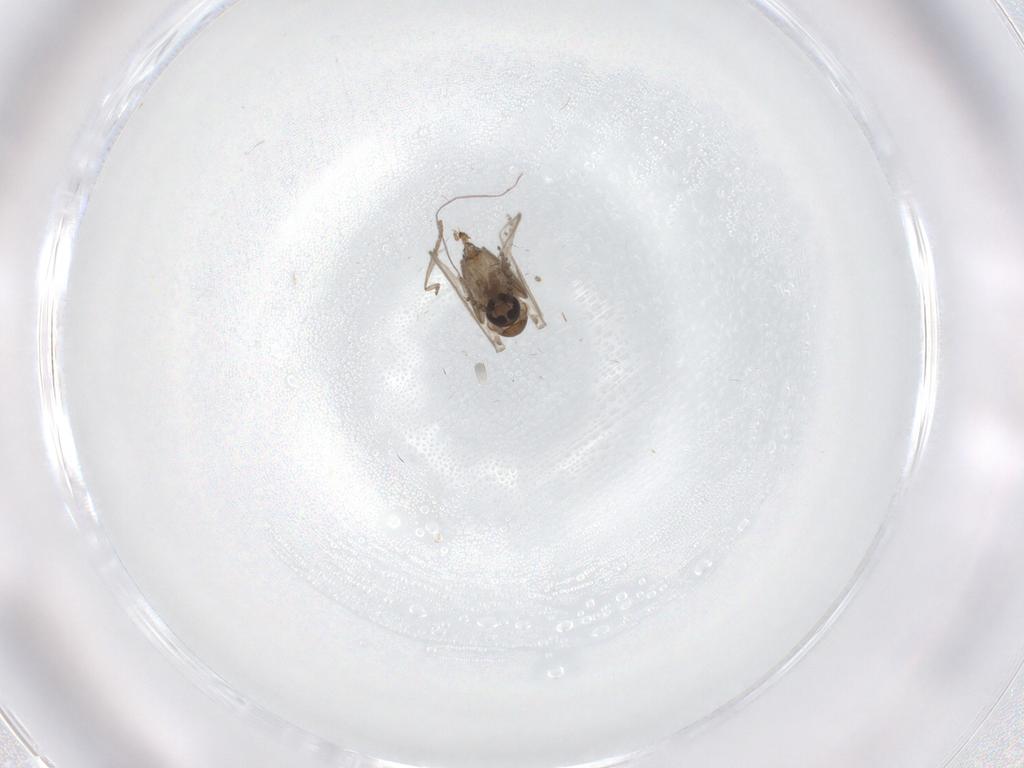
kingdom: Animalia
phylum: Arthropoda
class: Insecta
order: Diptera
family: Psychodidae
